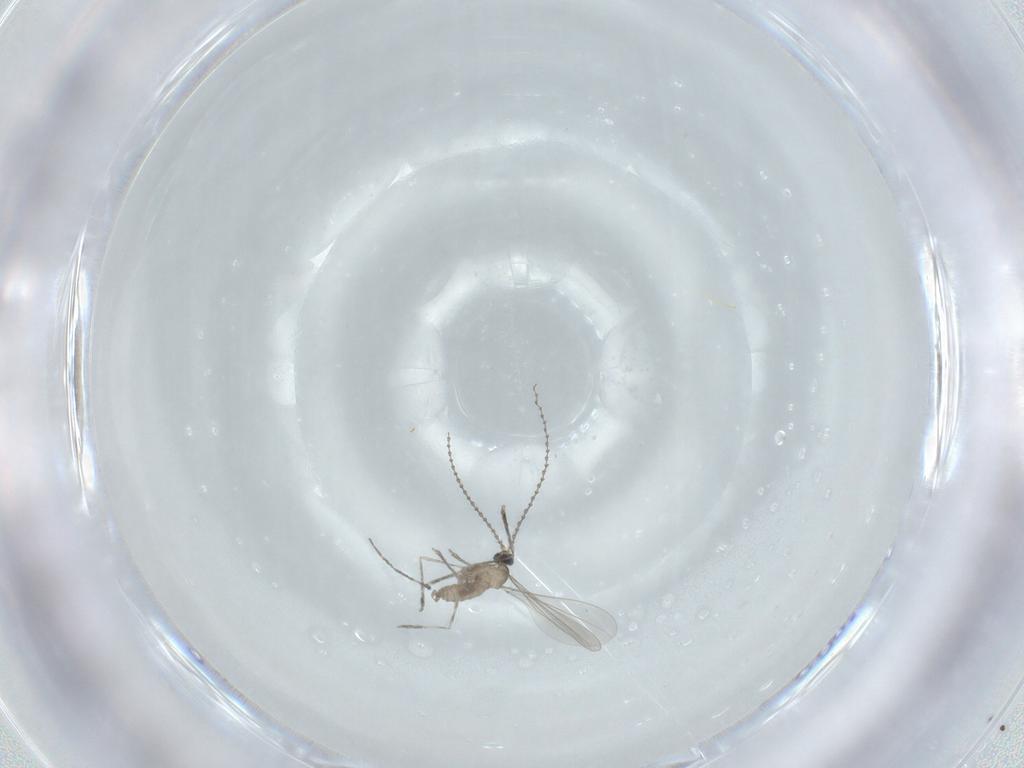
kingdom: Animalia
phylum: Arthropoda
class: Insecta
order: Diptera
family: Cecidomyiidae
